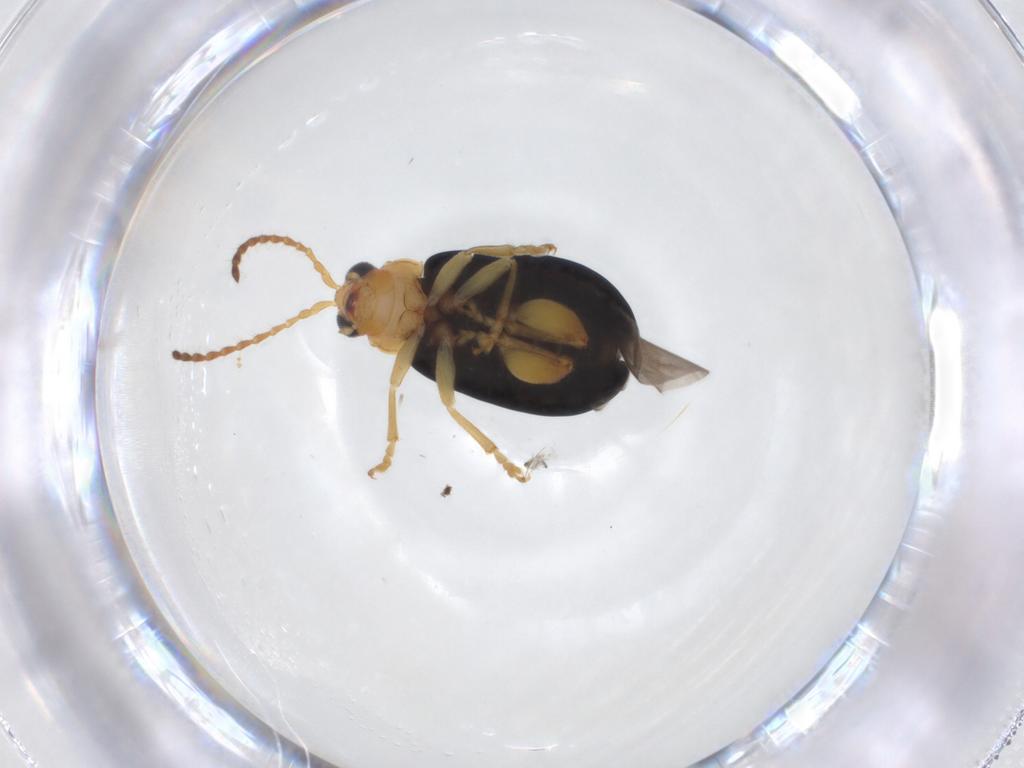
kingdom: Animalia
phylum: Arthropoda
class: Insecta
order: Coleoptera
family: Chrysomelidae
